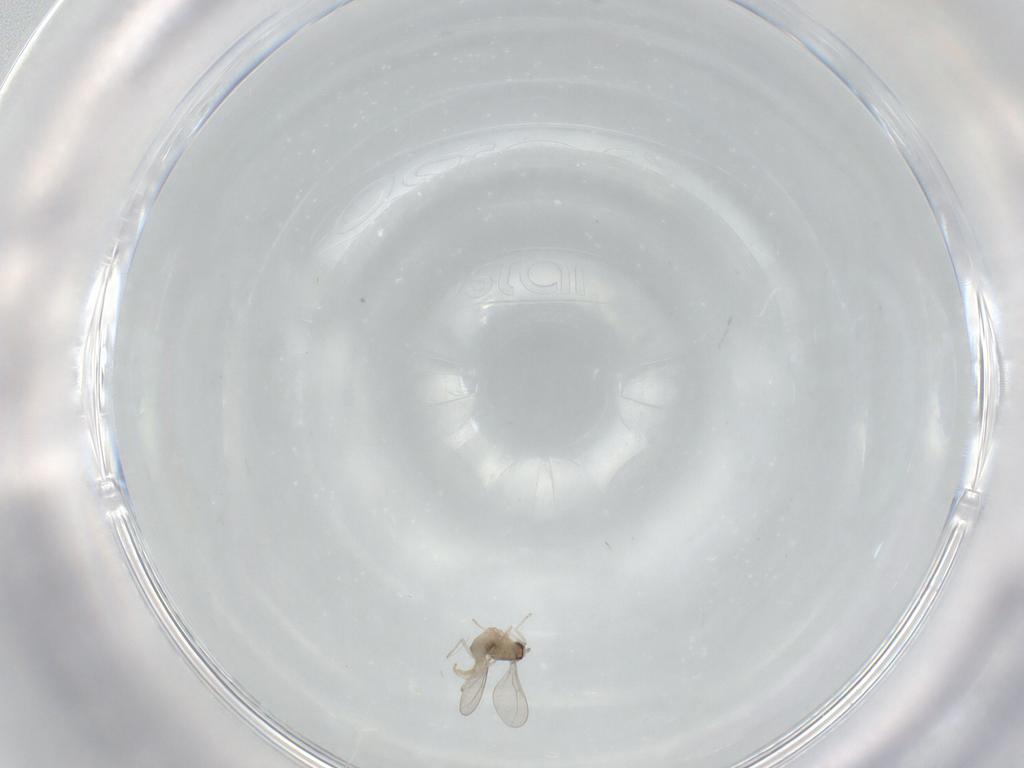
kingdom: Animalia
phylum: Arthropoda
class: Insecta
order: Diptera
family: Cecidomyiidae
